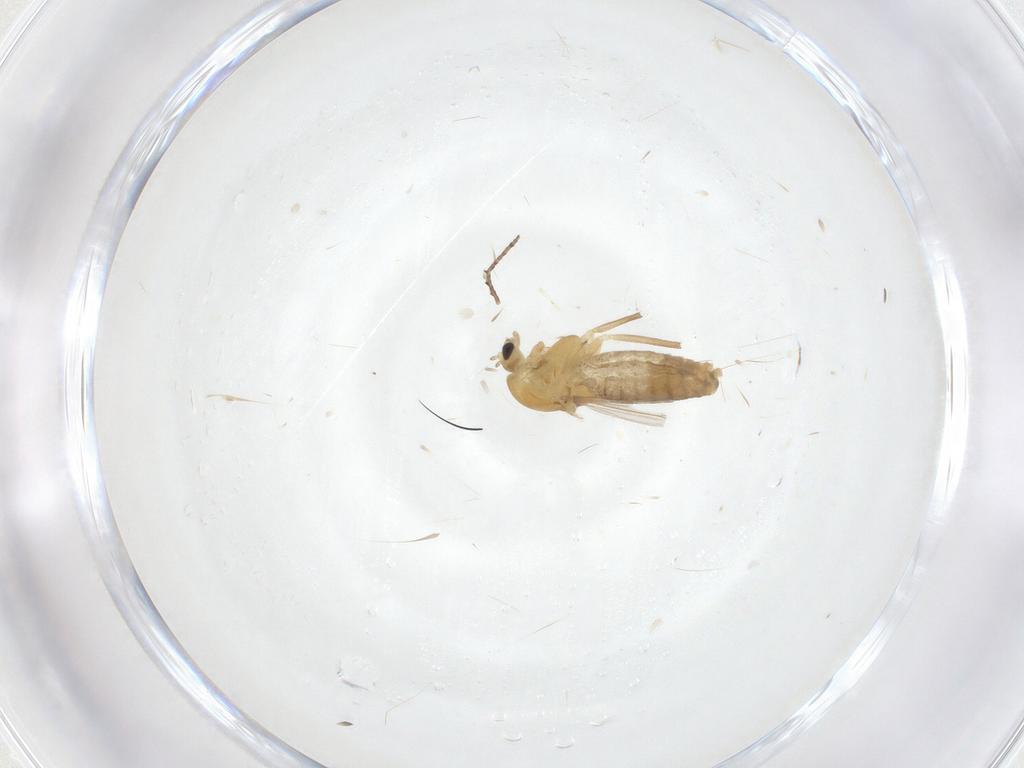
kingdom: Animalia
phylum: Arthropoda
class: Insecta
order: Diptera
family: Chironomidae
